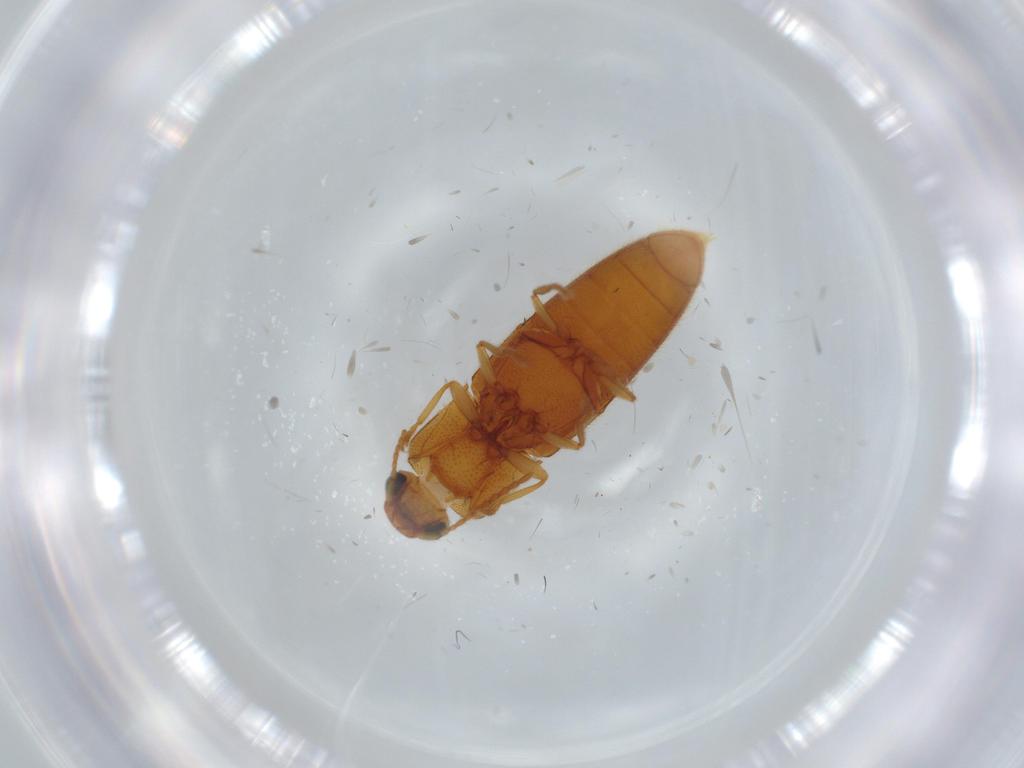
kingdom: Animalia
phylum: Arthropoda
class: Insecta
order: Coleoptera
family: Elateridae
